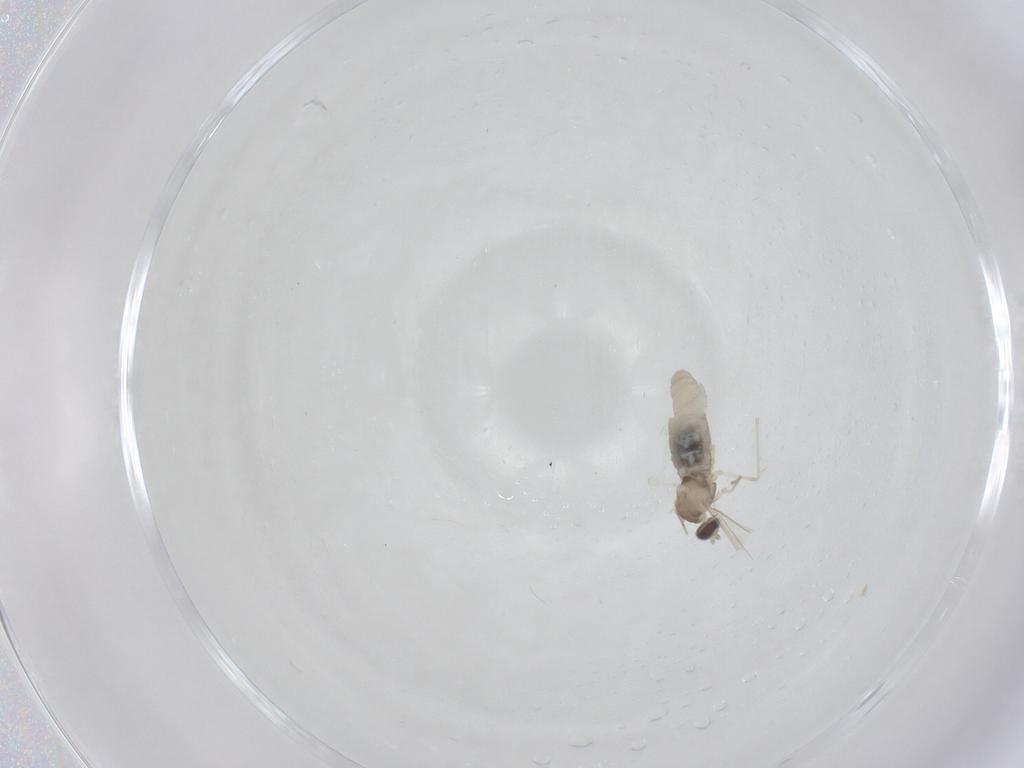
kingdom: Animalia
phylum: Arthropoda
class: Insecta
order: Diptera
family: Cecidomyiidae
